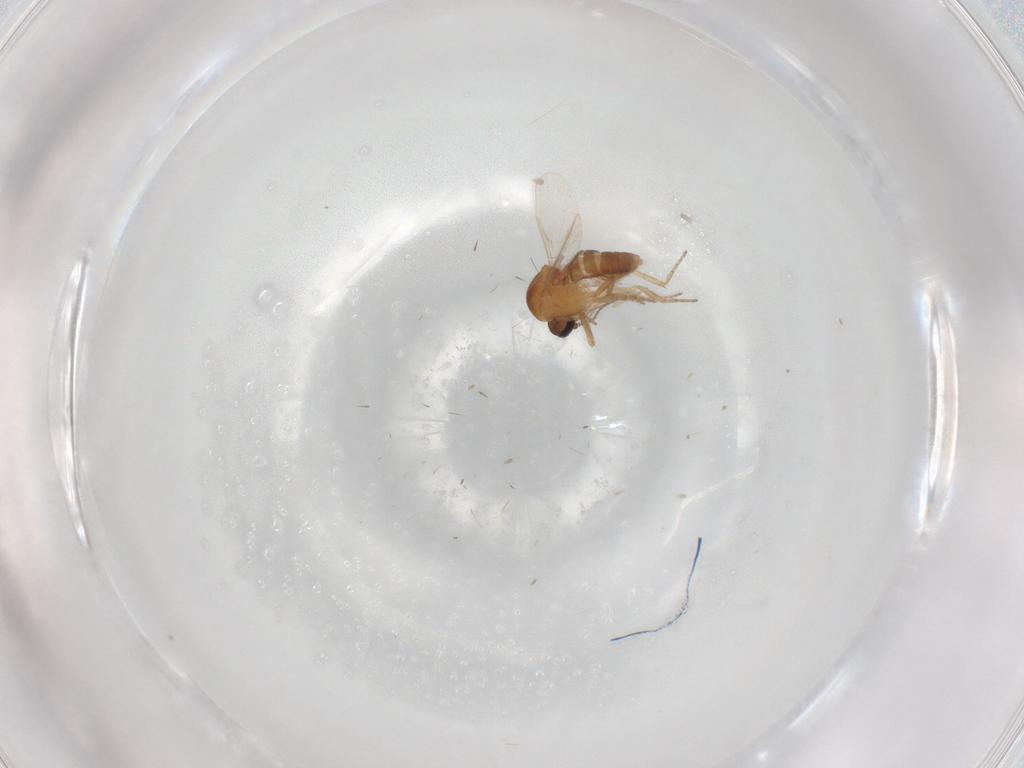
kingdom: Animalia
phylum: Arthropoda
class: Insecta
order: Diptera
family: Ceratopogonidae
